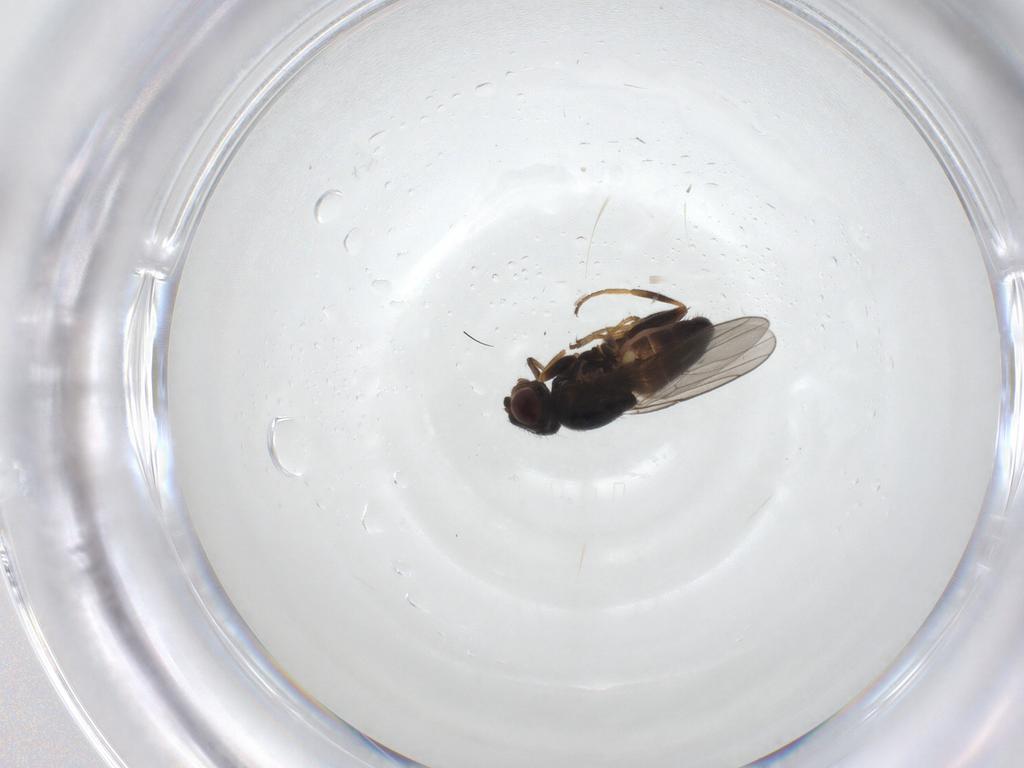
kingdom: Animalia
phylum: Arthropoda
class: Insecta
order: Diptera
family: Chloropidae
